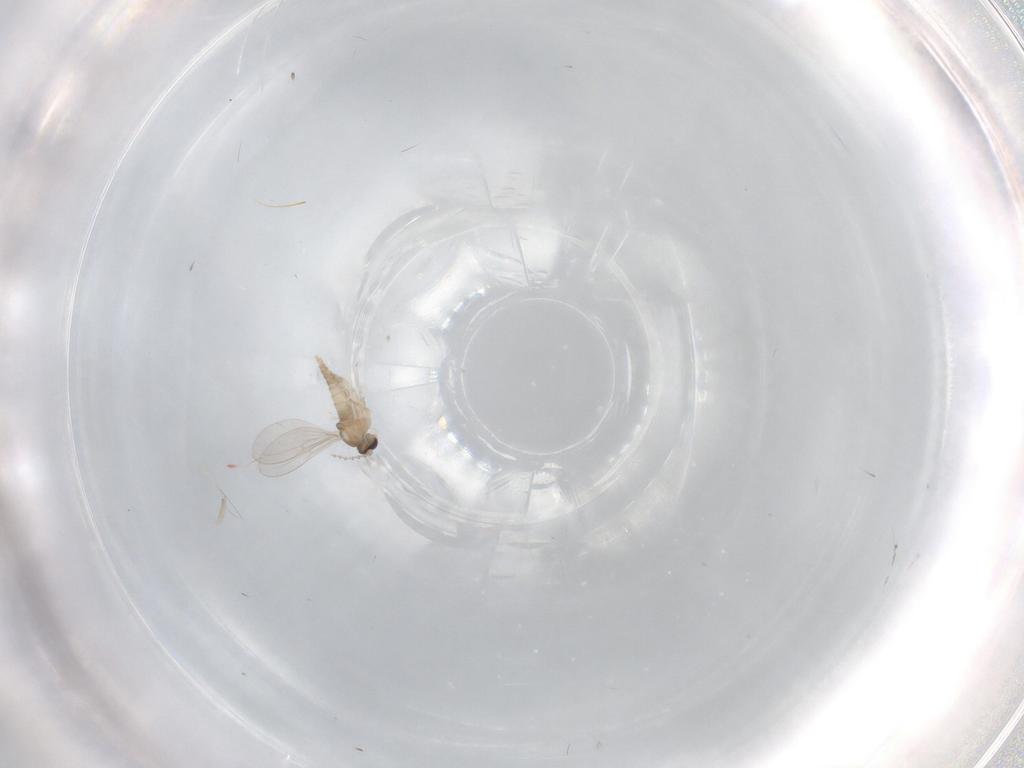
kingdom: Animalia
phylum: Arthropoda
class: Insecta
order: Diptera
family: Cecidomyiidae
